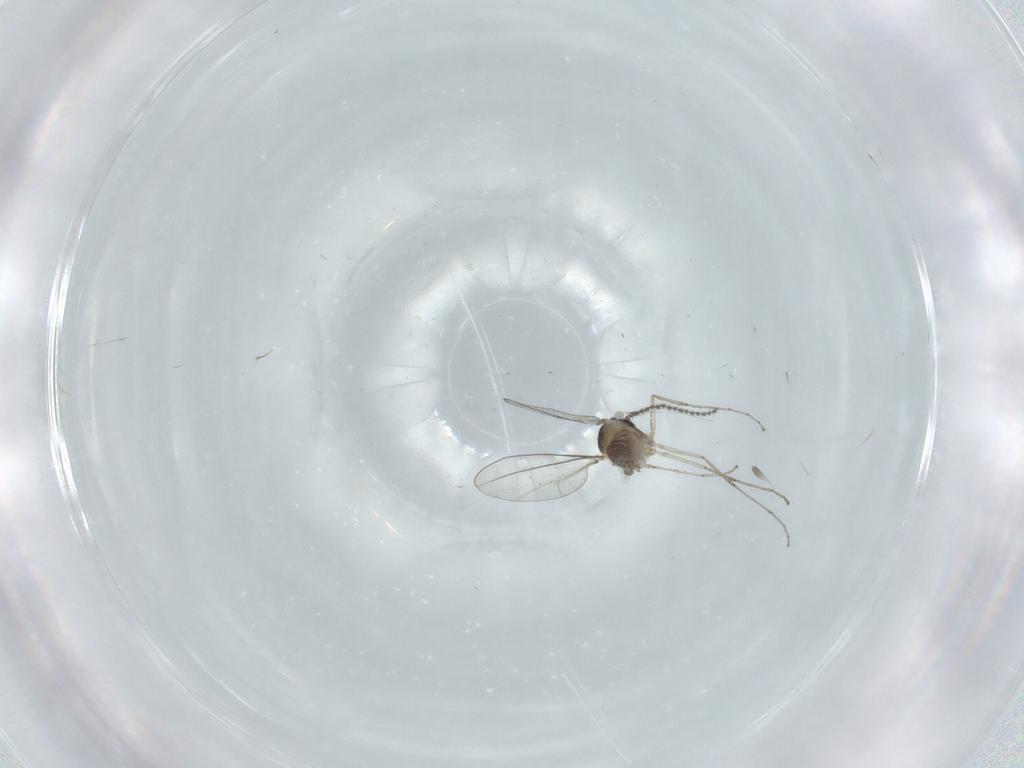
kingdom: Animalia
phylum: Arthropoda
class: Insecta
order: Diptera
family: Cecidomyiidae
